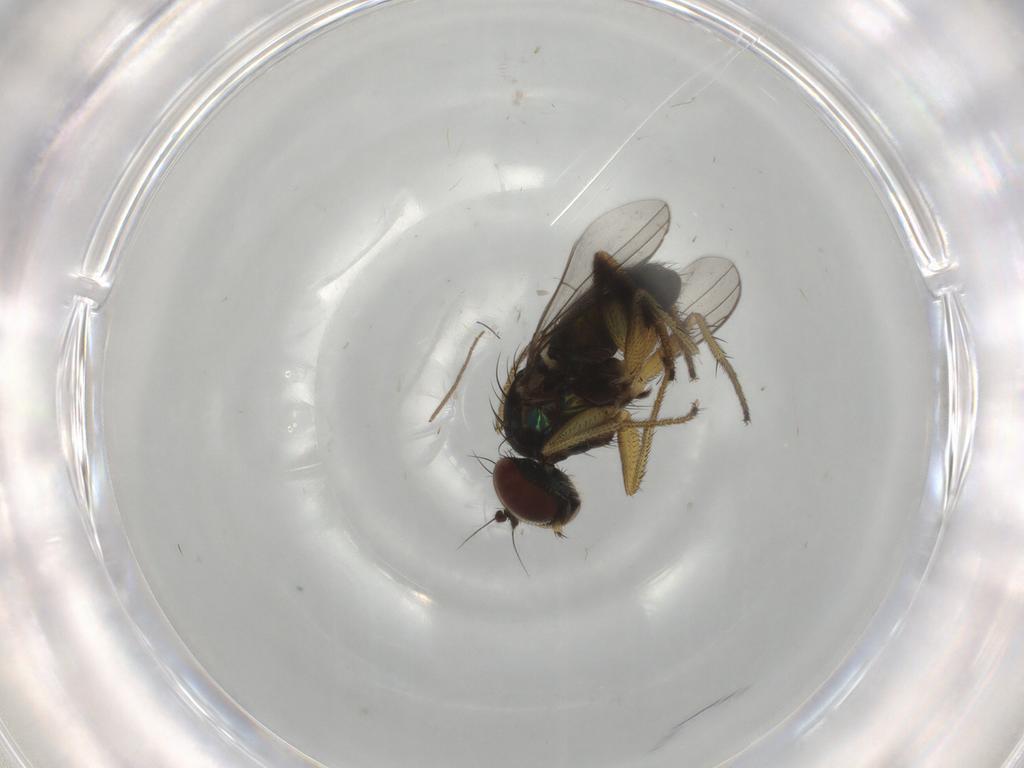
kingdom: Animalia
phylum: Arthropoda
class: Insecta
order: Diptera
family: Dolichopodidae
